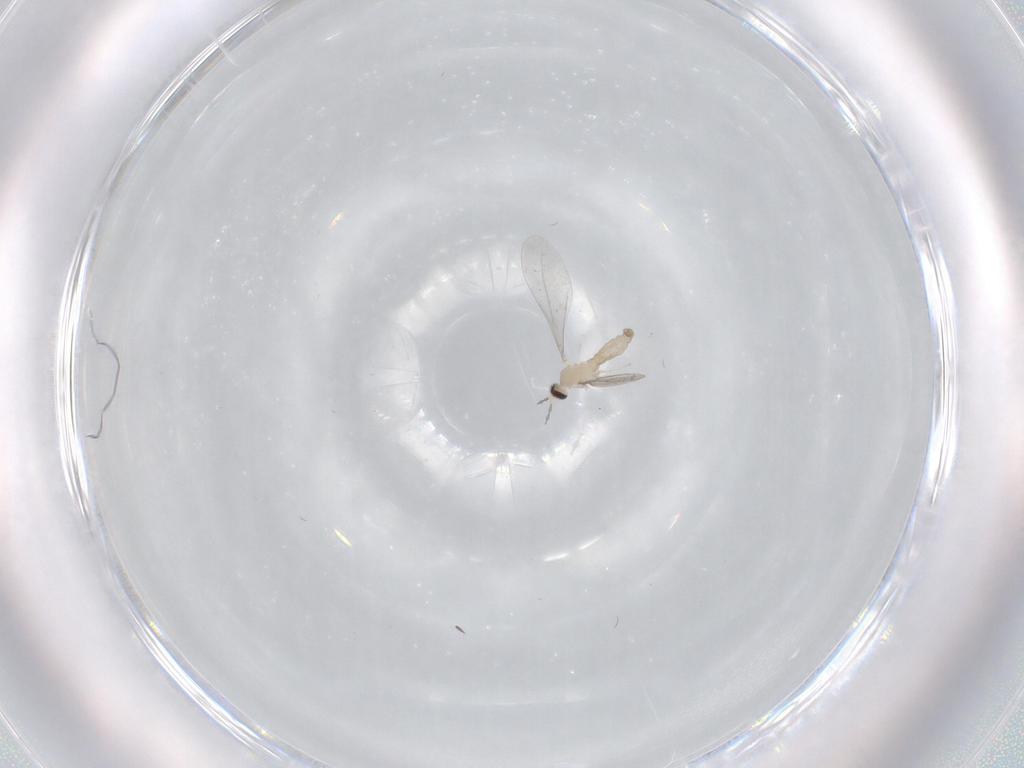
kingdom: Animalia
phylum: Arthropoda
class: Insecta
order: Diptera
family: Cecidomyiidae
